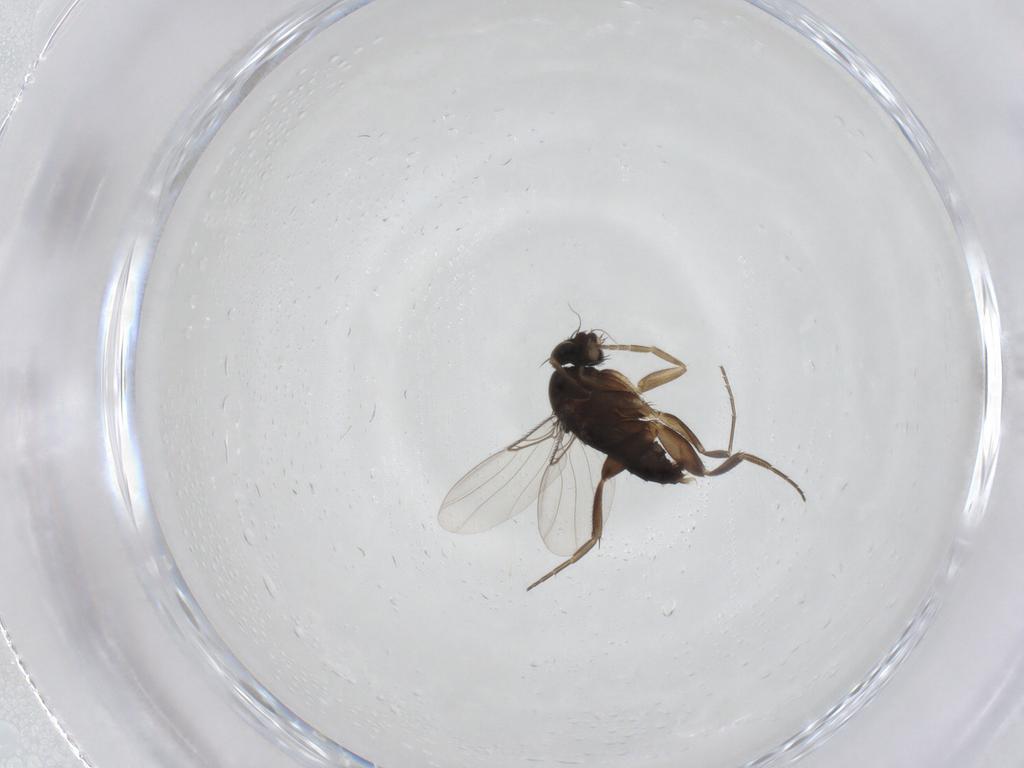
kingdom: Animalia
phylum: Arthropoda
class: Insecta
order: Diptera
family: Phoridae
